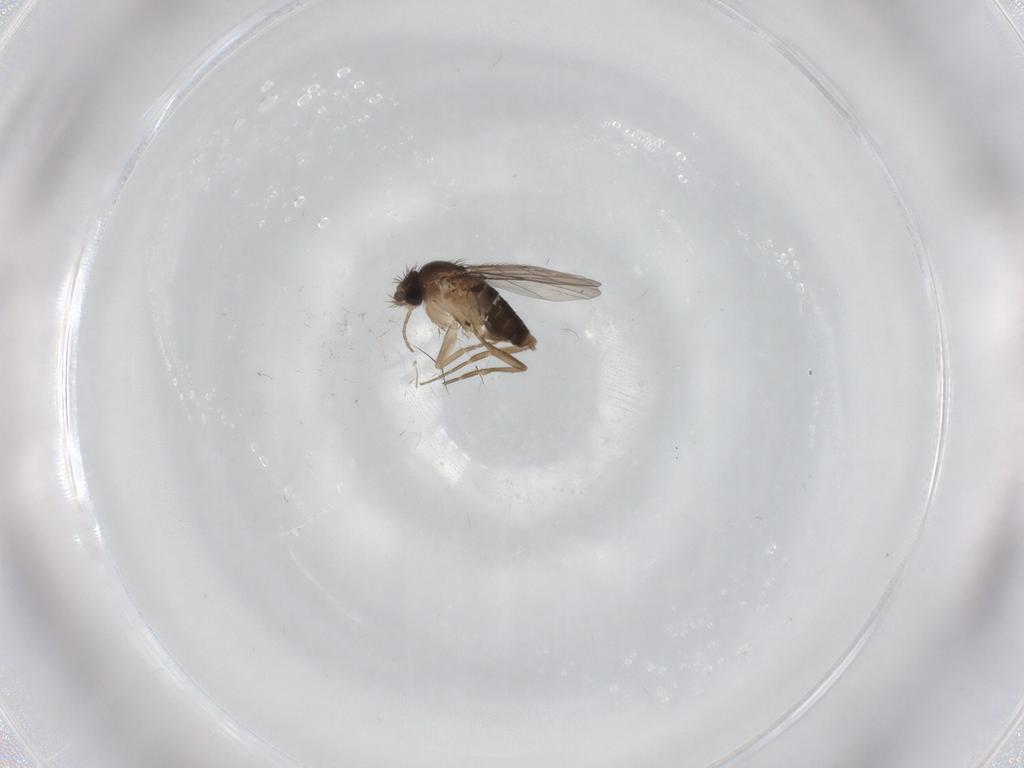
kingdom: Animalia
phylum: Arthropoda
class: Insecta
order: Diptera
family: Phoridae
